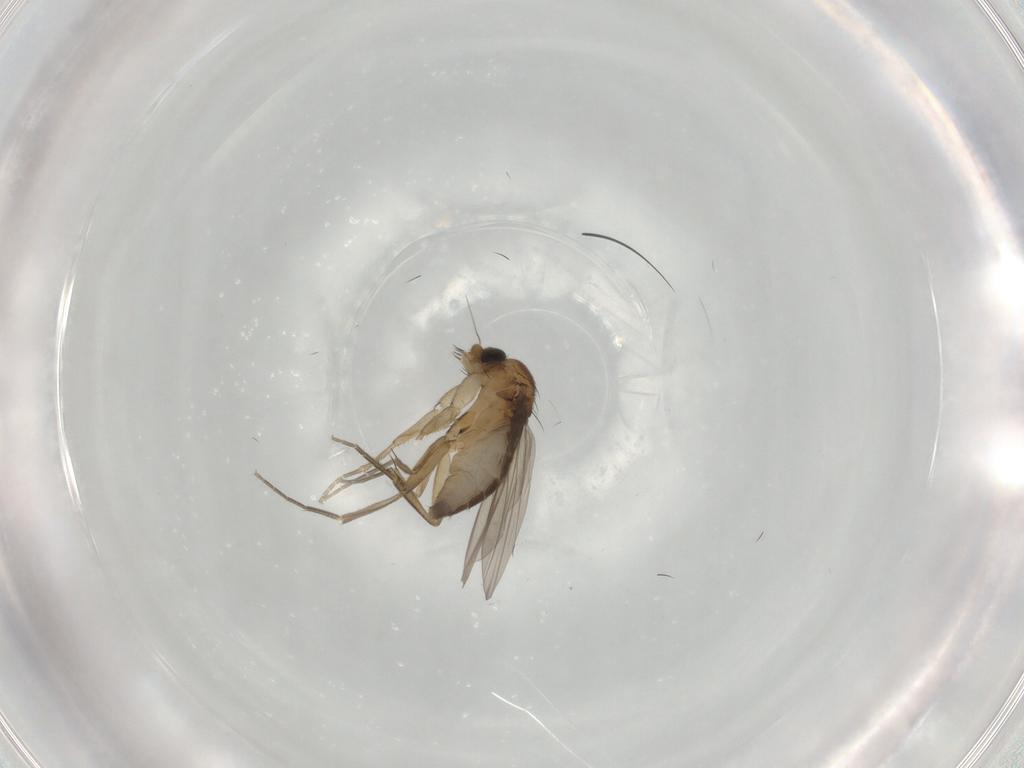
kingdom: Animalia
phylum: Arthropoda
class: Insecta
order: Diptera
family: Phoridae
